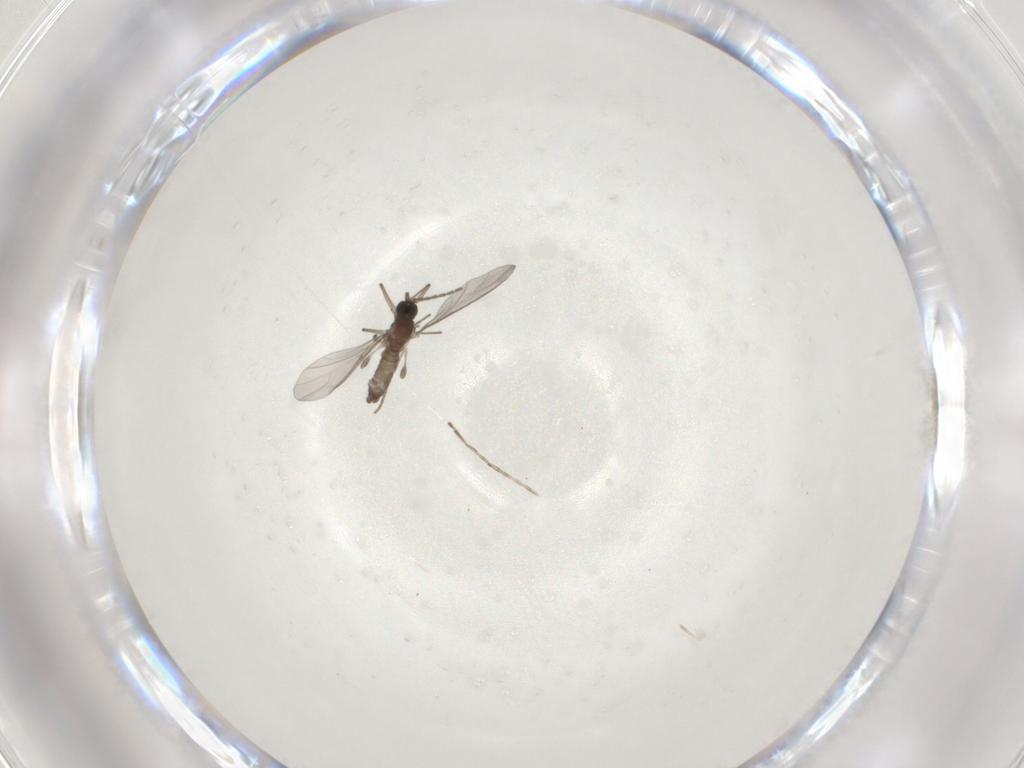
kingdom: Animalia
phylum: Arthropoda
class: Insecta
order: Diptera
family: Sciaridae
